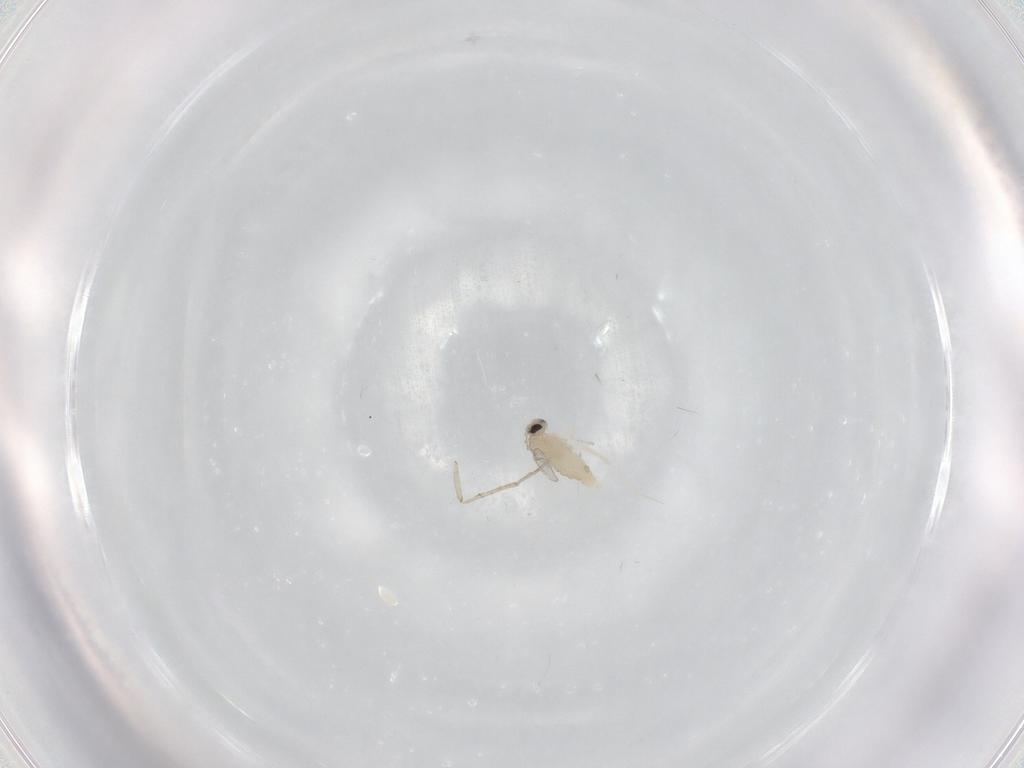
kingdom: Animalia
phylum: Arthropoda
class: Insecta
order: Diptera
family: Cecidomyiidae
